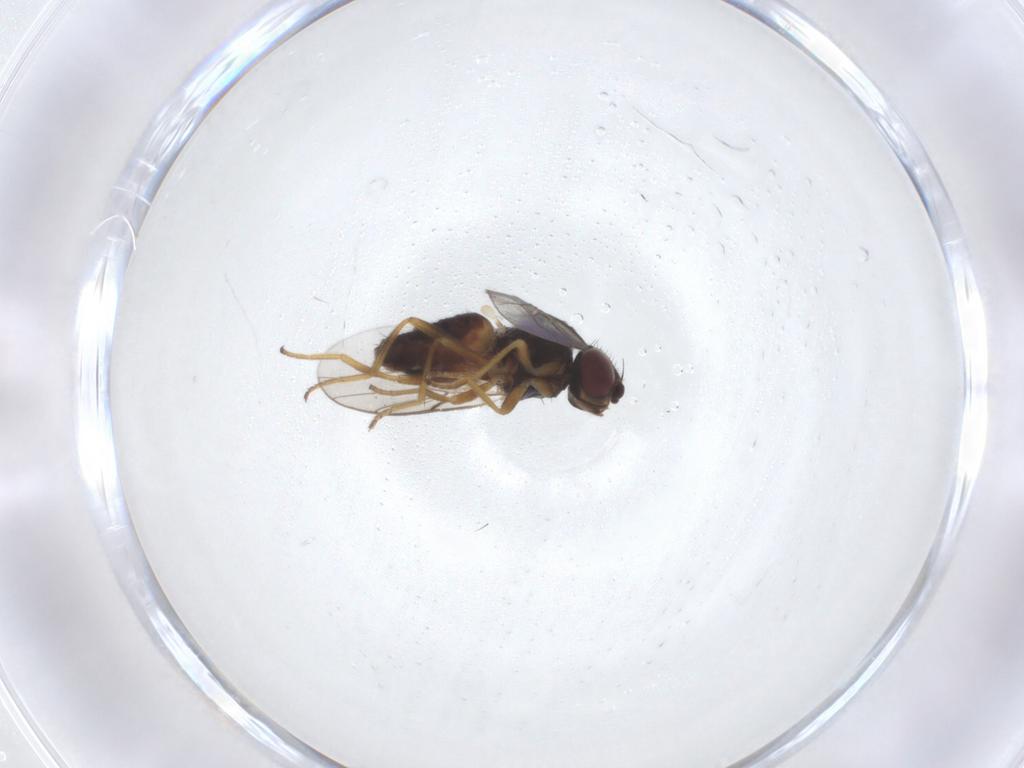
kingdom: Animalia
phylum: Arthropoda
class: Insecta
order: Diptera
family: Chloropidae
